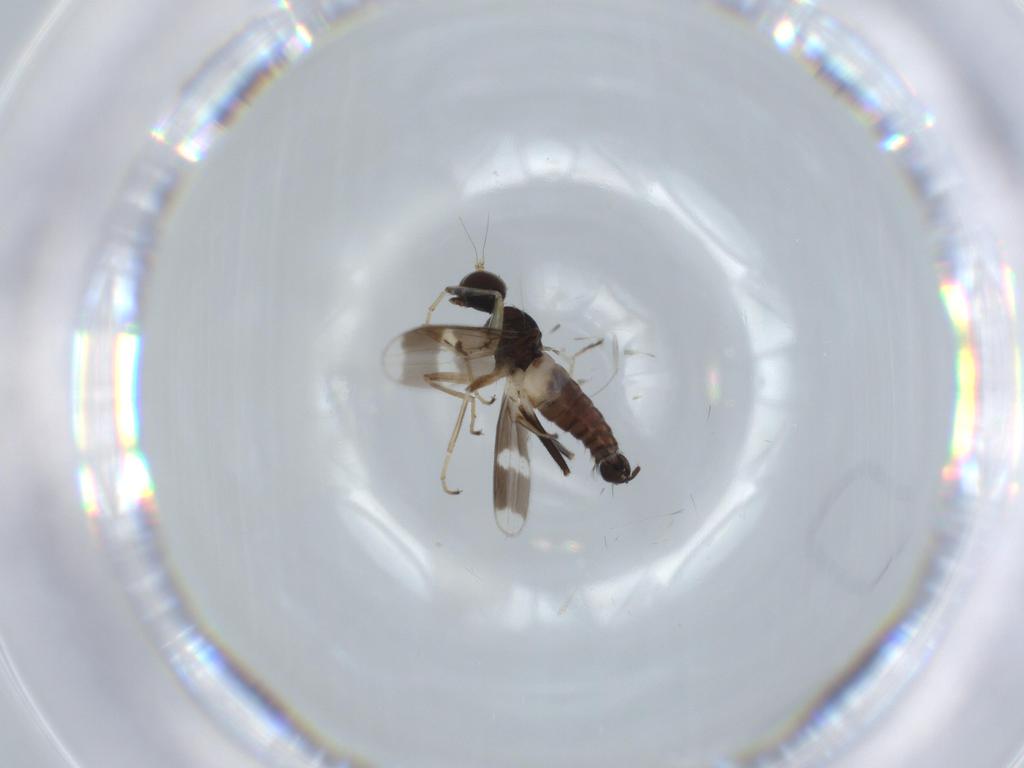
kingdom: Animalia
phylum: Arthropoda
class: Insecta
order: Diptera
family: Hybotidae
